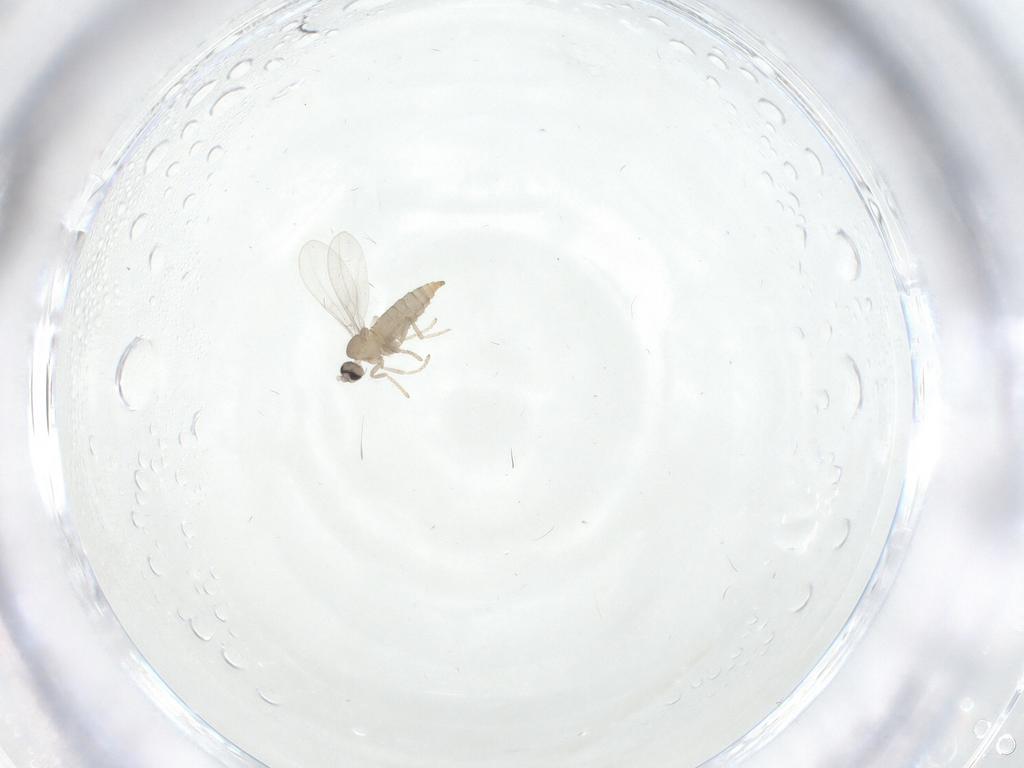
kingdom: Animalia
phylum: Arthropoda
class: Insecta
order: Diptera
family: Cecidomyiidae
